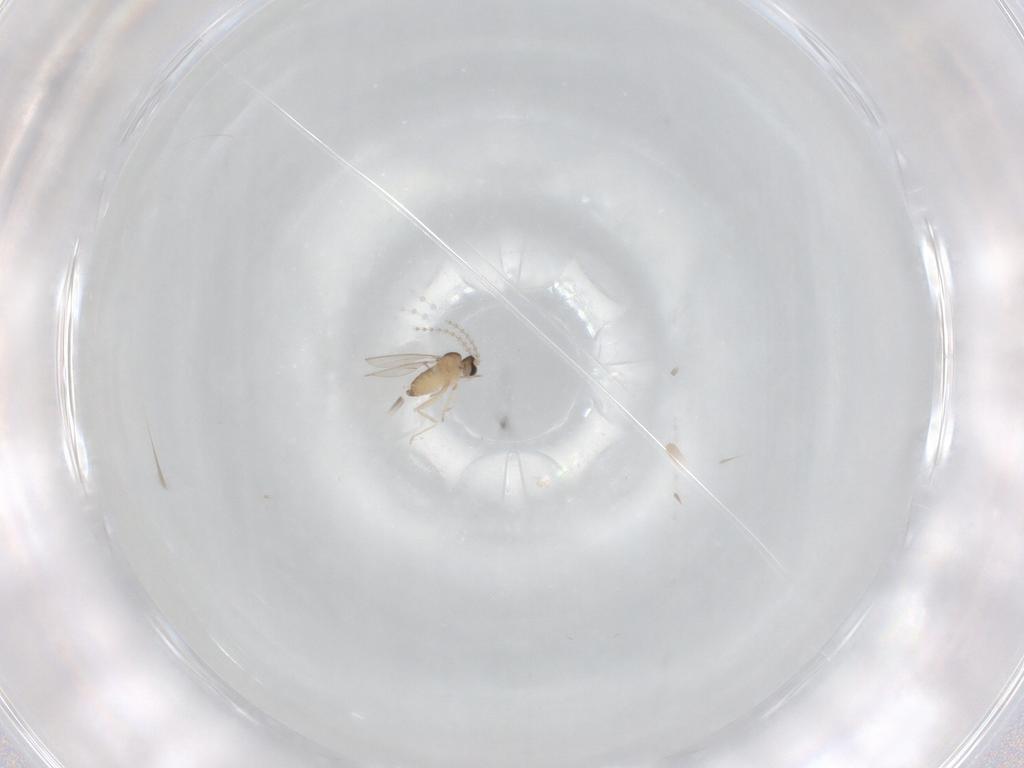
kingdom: Animalia
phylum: Arthropoda
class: Insecta
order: Diptera
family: Cecidomyiidae
